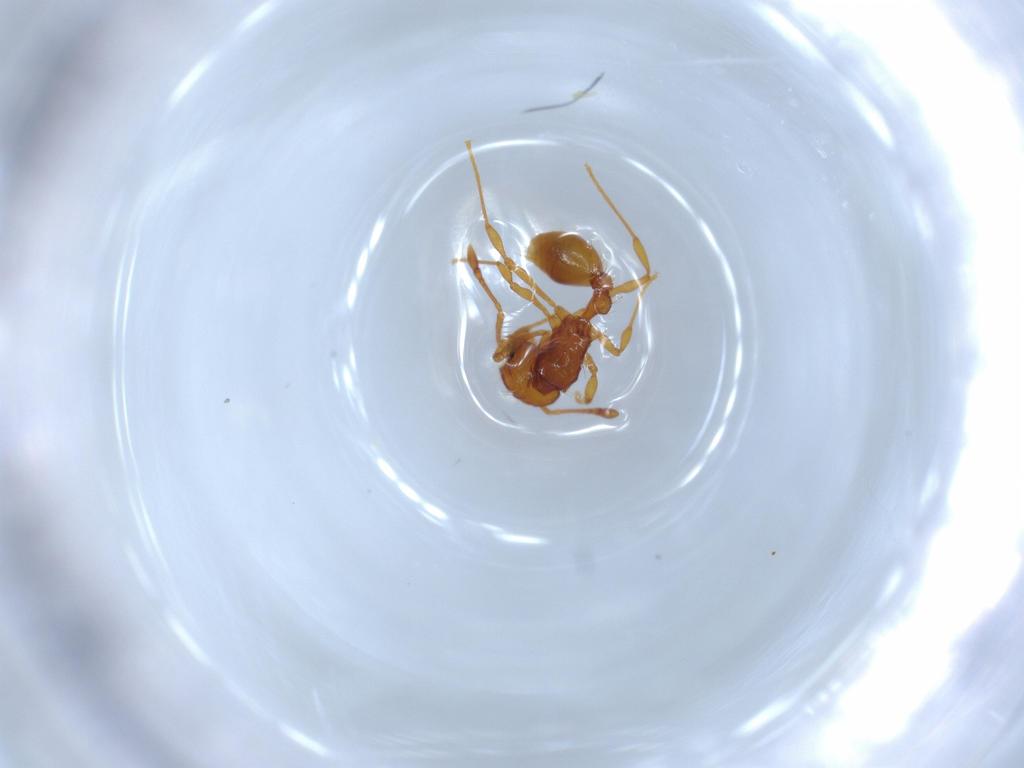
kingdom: Animalia
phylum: Arthropoda
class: Insecta
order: Hymenoptera
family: Formicidae
